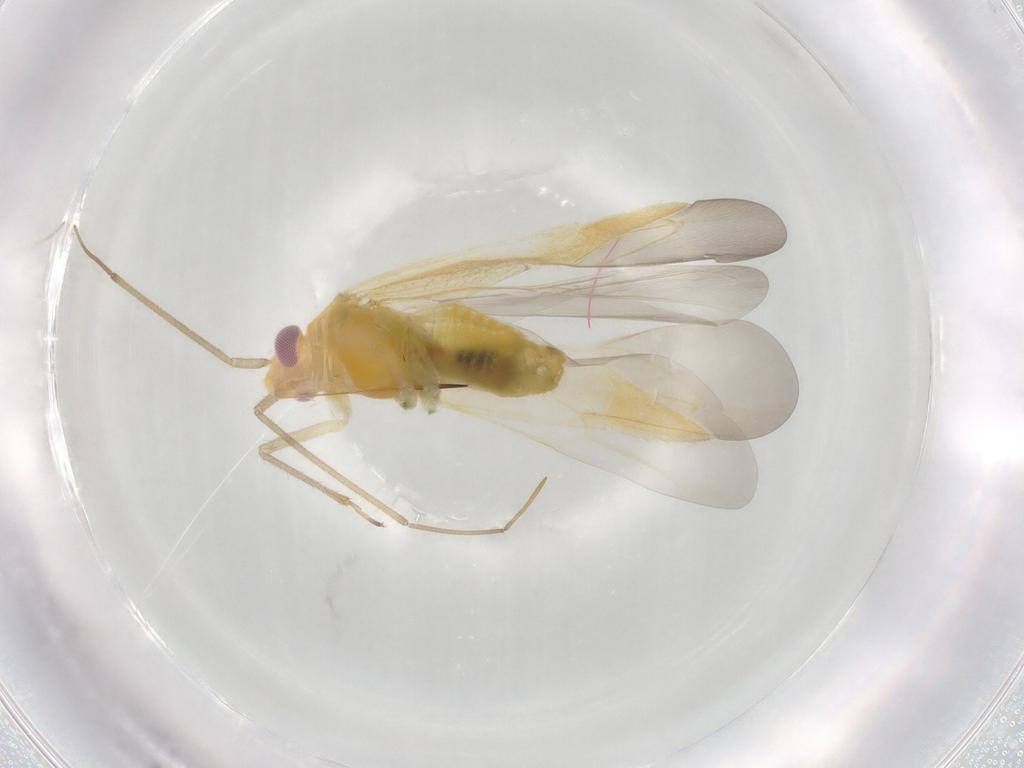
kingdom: Animalia
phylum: Arthropoda
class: Insecta
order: Hemiptera
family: Miridae
